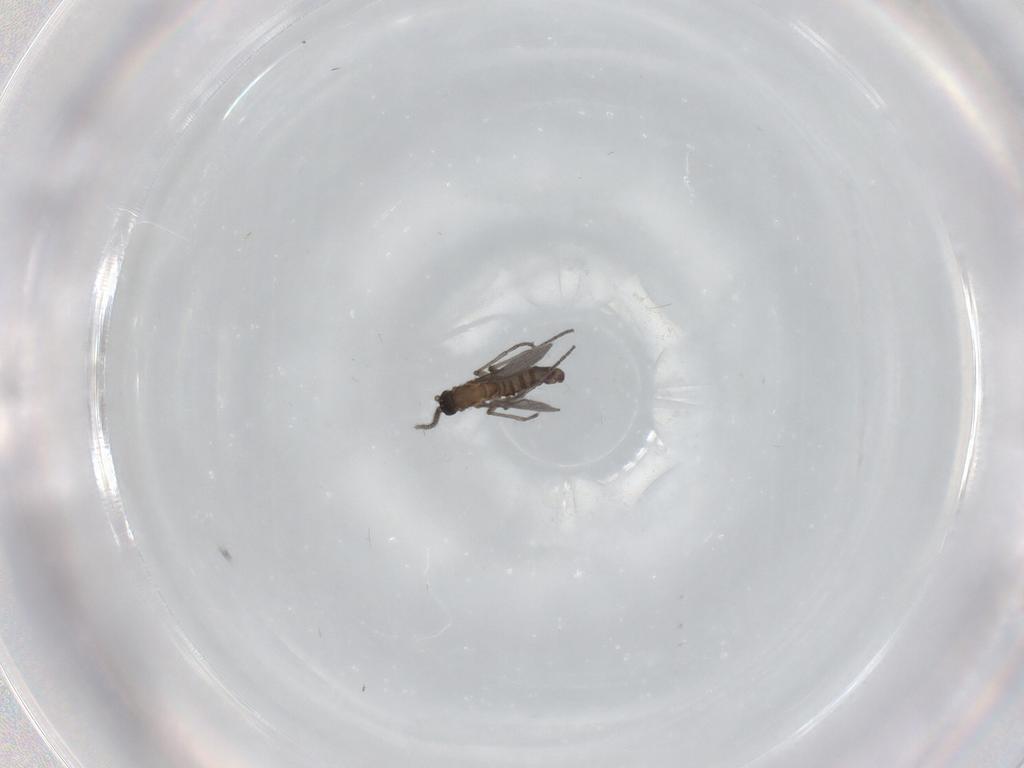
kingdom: Animalia
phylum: Arthropoda
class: Insecta
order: Diptera
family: Sciaridae
